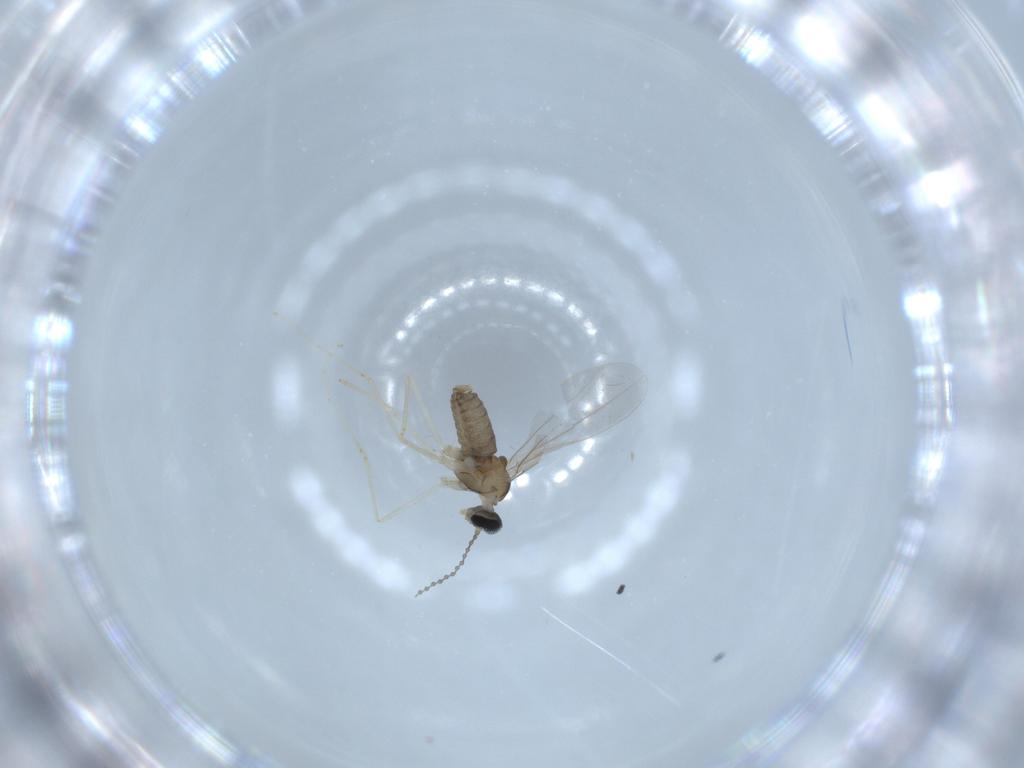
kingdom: Animalia
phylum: Arthropoda
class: Insecta
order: Diptera
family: Cecidomyiidae
